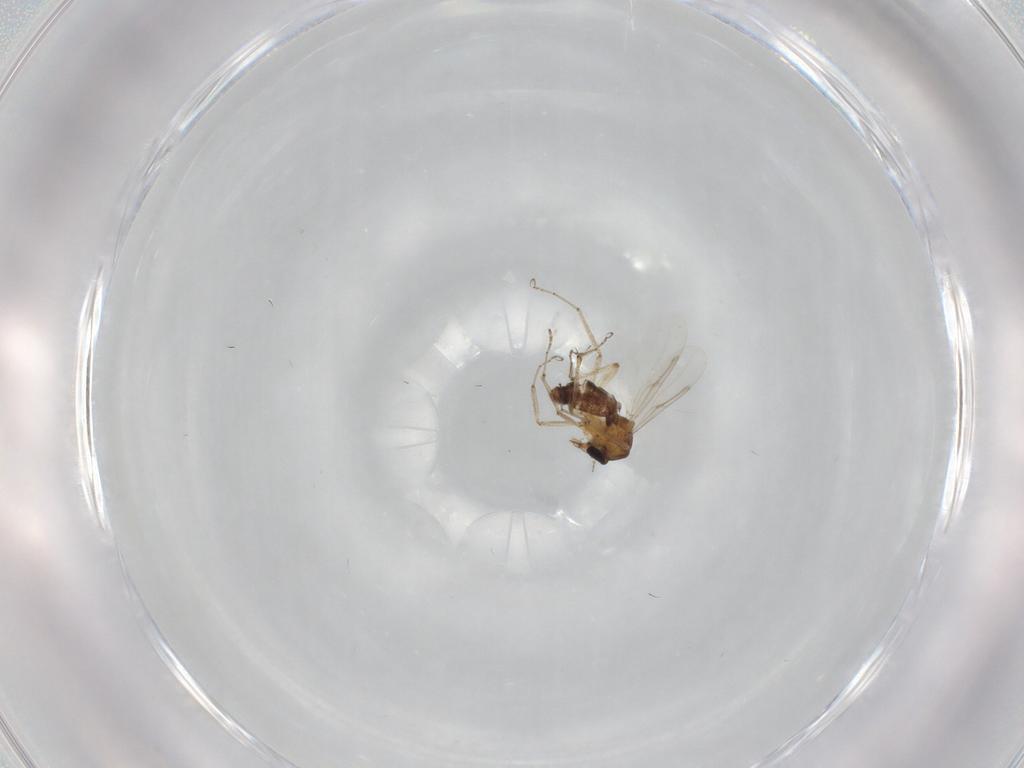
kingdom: Animalia
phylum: Arthropoda
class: Insecta
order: Diptera
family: Ceratopogonidae
